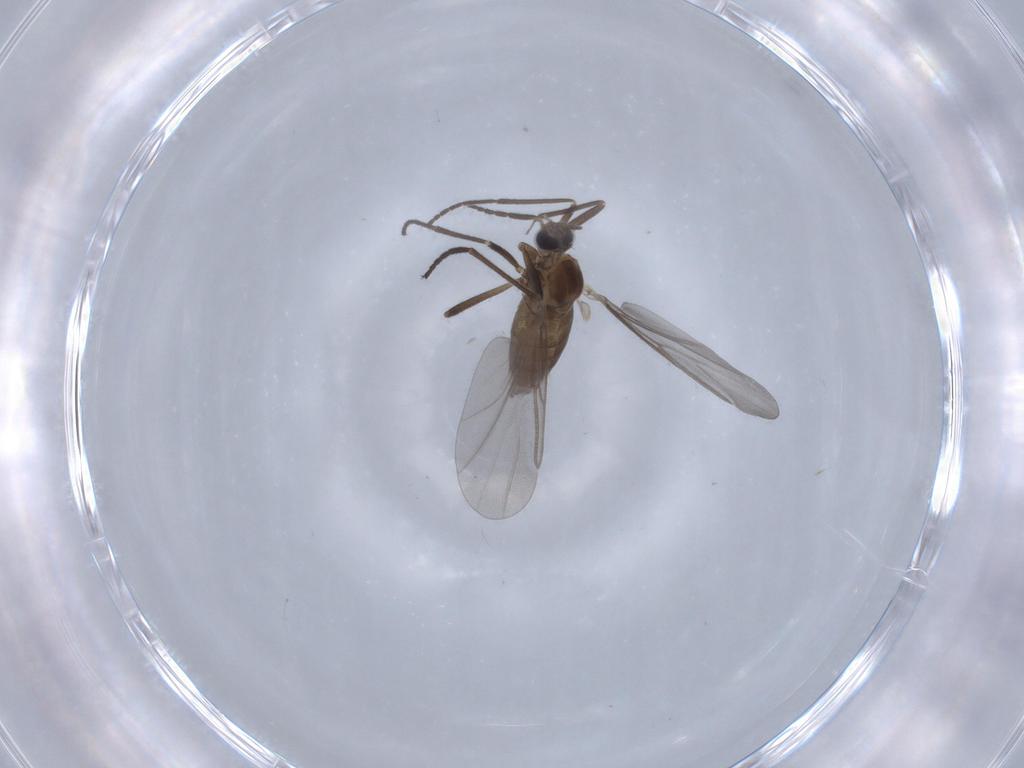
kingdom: Animalia
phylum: Arthropoda
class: Insecta
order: Diptera
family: Cecidomyiidae
